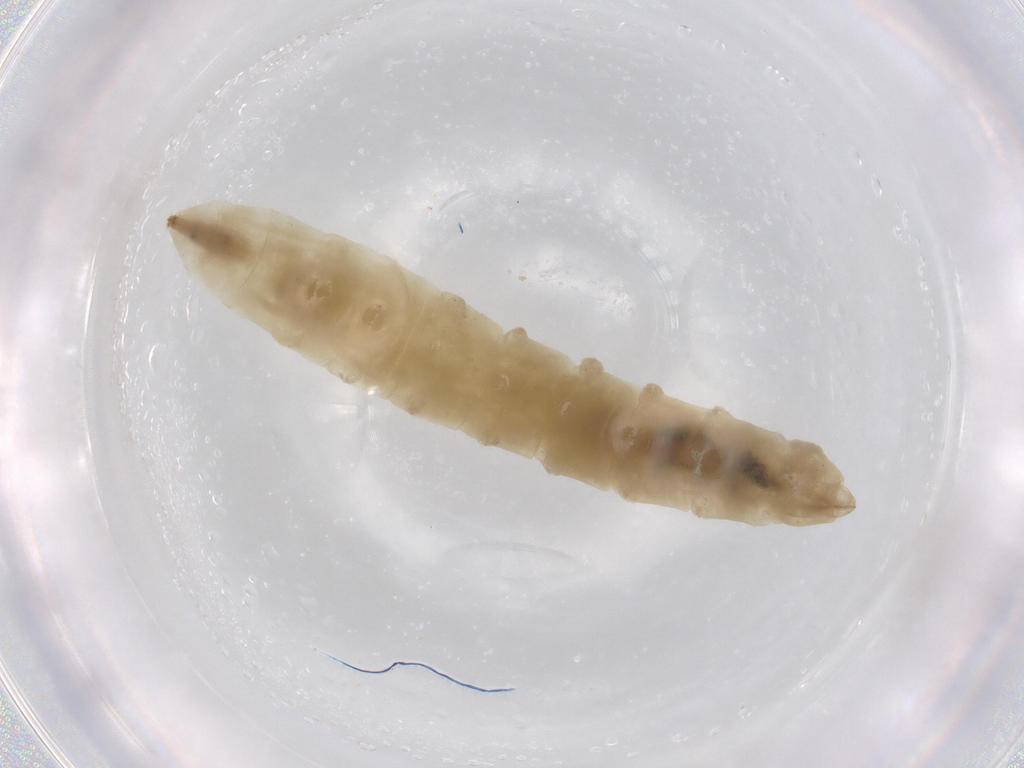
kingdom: Animalia
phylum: Arthropoda
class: Insecta
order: Diptera
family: Tabanidae
